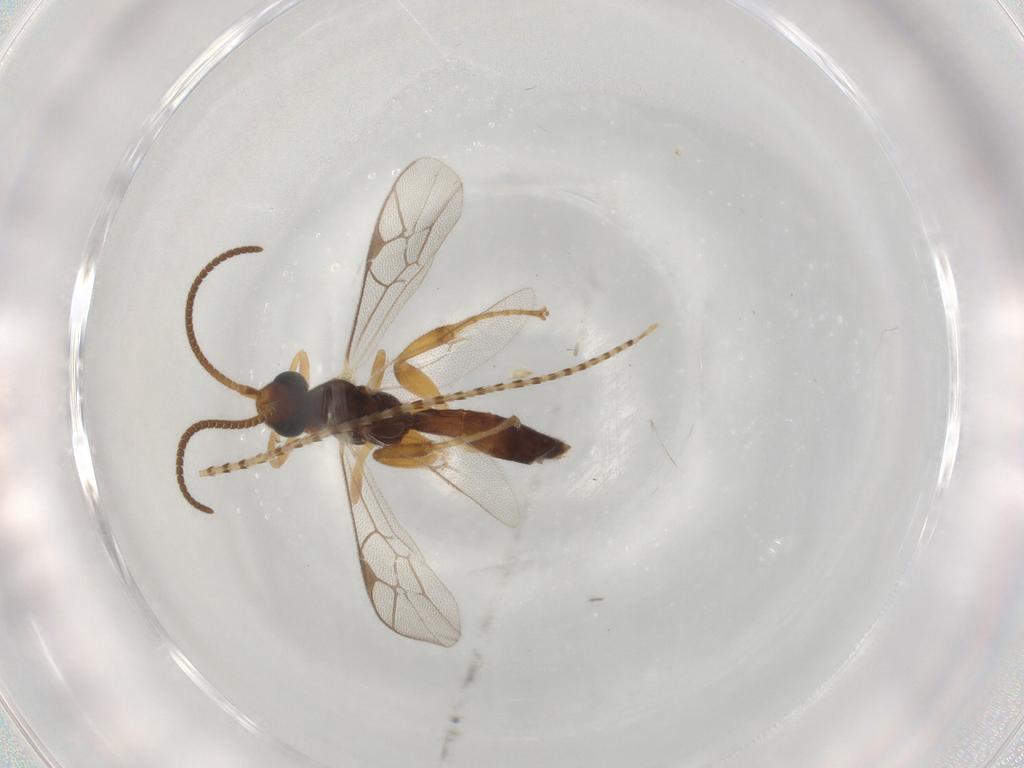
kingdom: Animalia
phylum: Arthropoda
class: Insecta
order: Hymenoptera
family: Ichneumonidae
